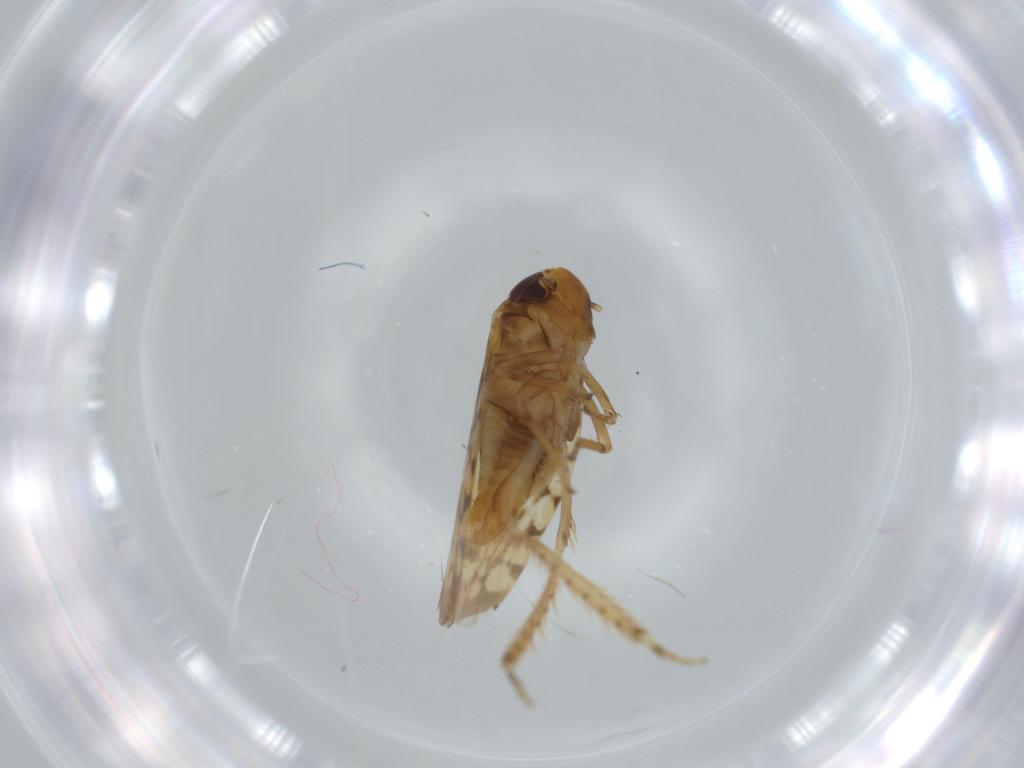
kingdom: Animalia
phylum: Arthropoda
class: Insecta
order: Hemiptera
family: Cicadellidae
